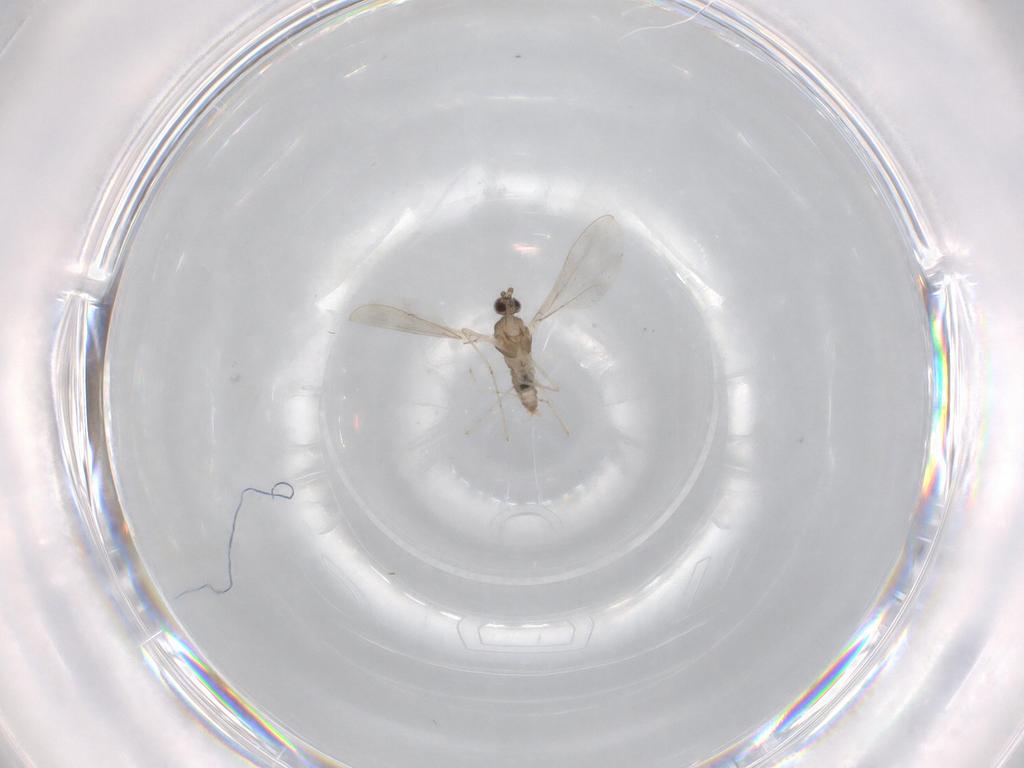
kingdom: Animalia
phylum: Arthropoda
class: Insecta
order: Diptera
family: Cecidomyiidae
